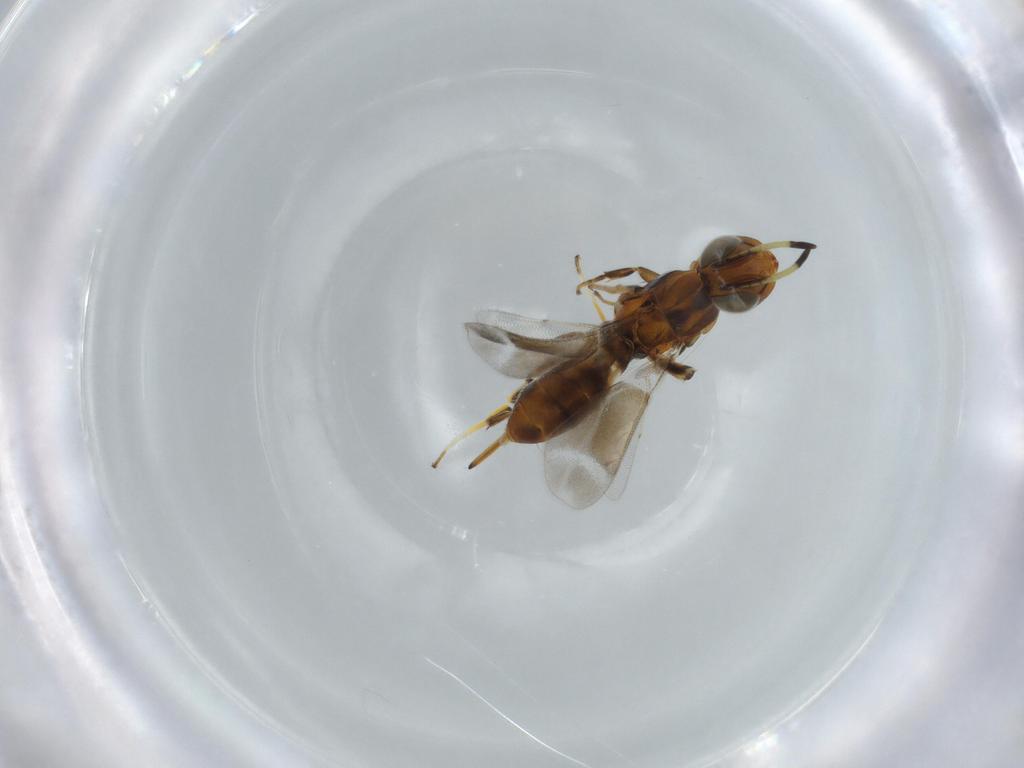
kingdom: Animalia
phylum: Arthropoda
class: Insecta
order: Hymenoptera
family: Eupelmidae
